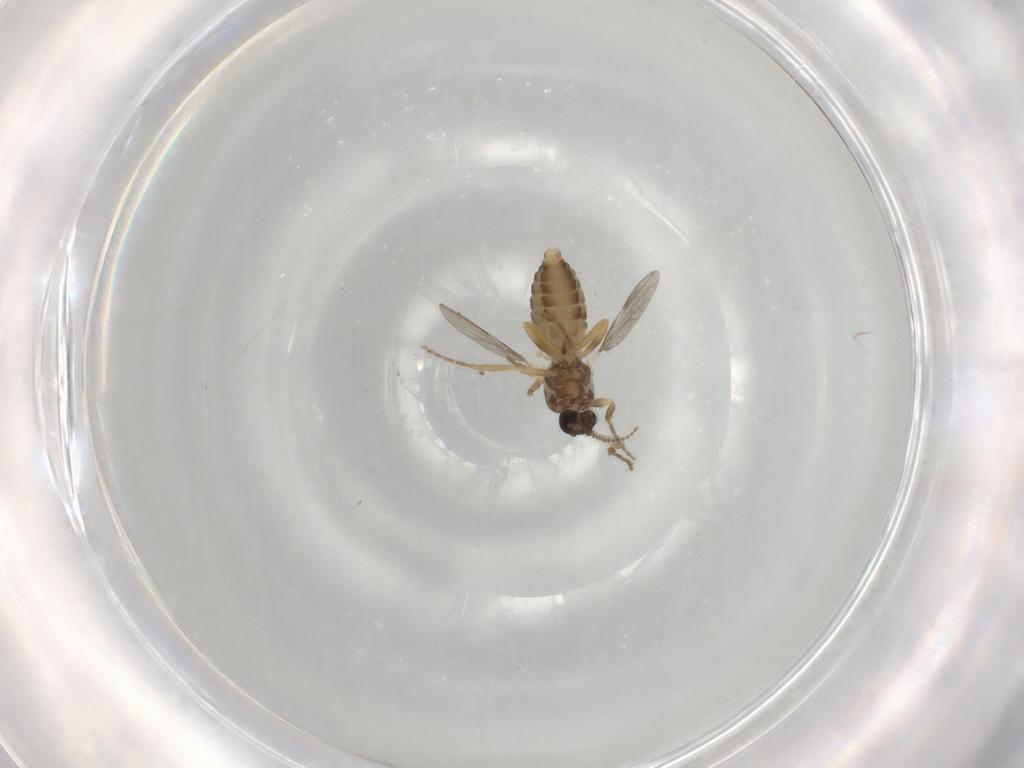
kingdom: Animalia
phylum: Arthropoda
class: Insecta
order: Diptera
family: Ceratopogonidae
